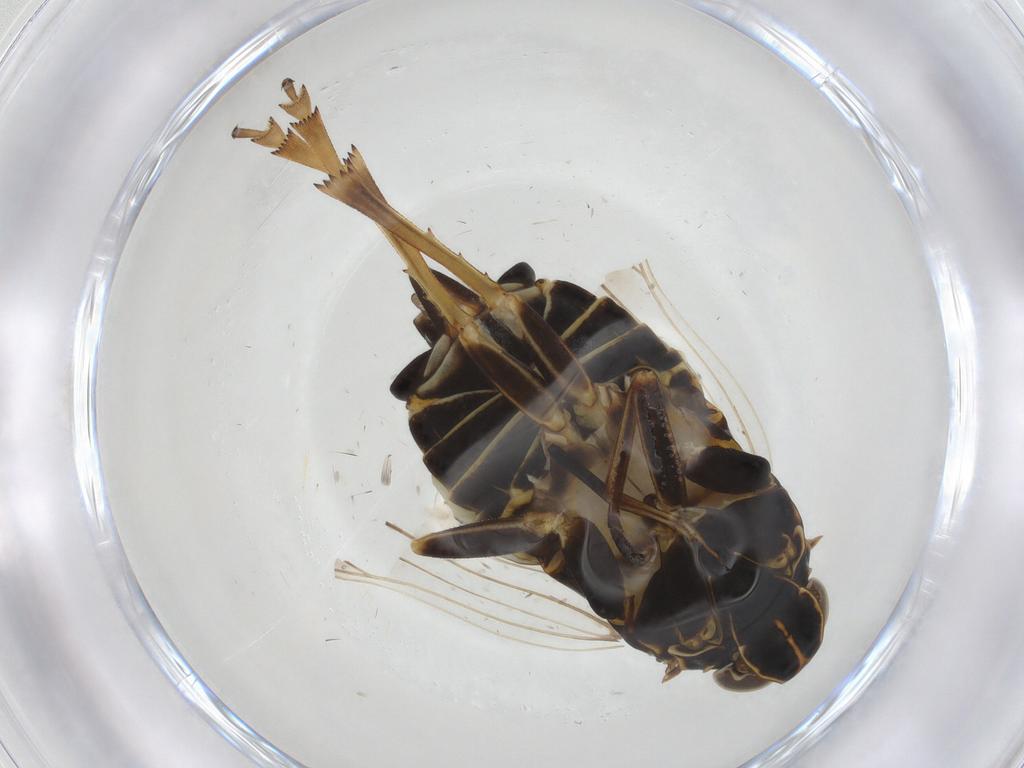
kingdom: Animalia
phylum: Arthropoda
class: Insecta
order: Hemiptera
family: Cixiidae
